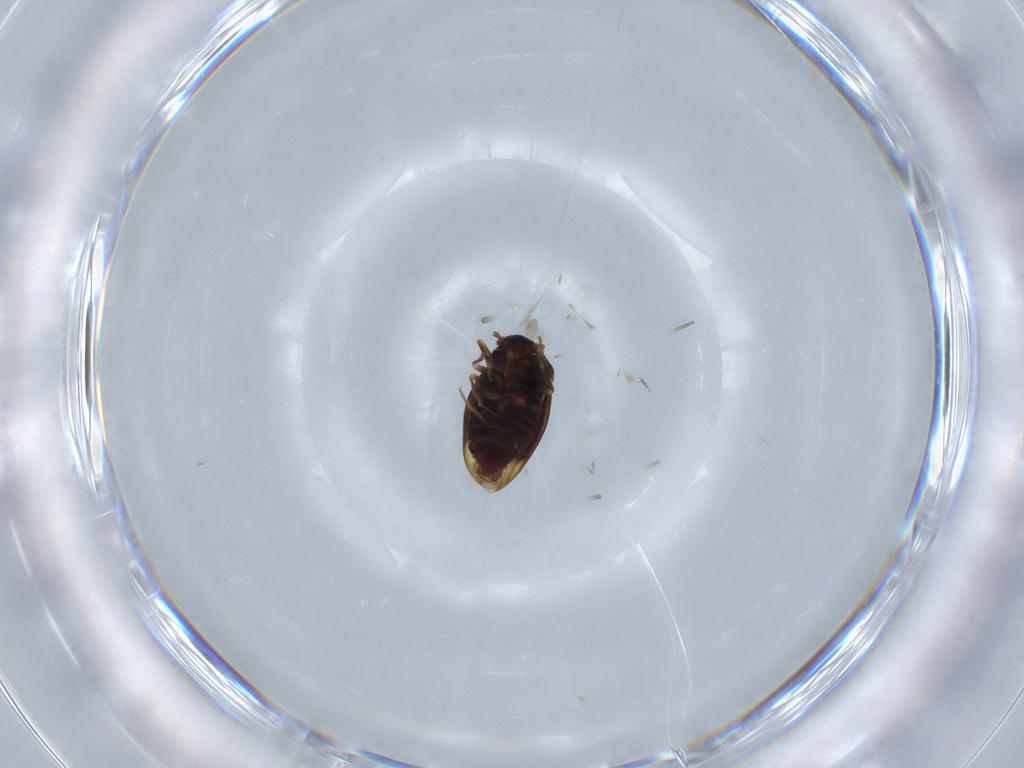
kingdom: Animalia
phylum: Arthropoda
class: Insecta
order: Hemiptera
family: Schizopteridae
